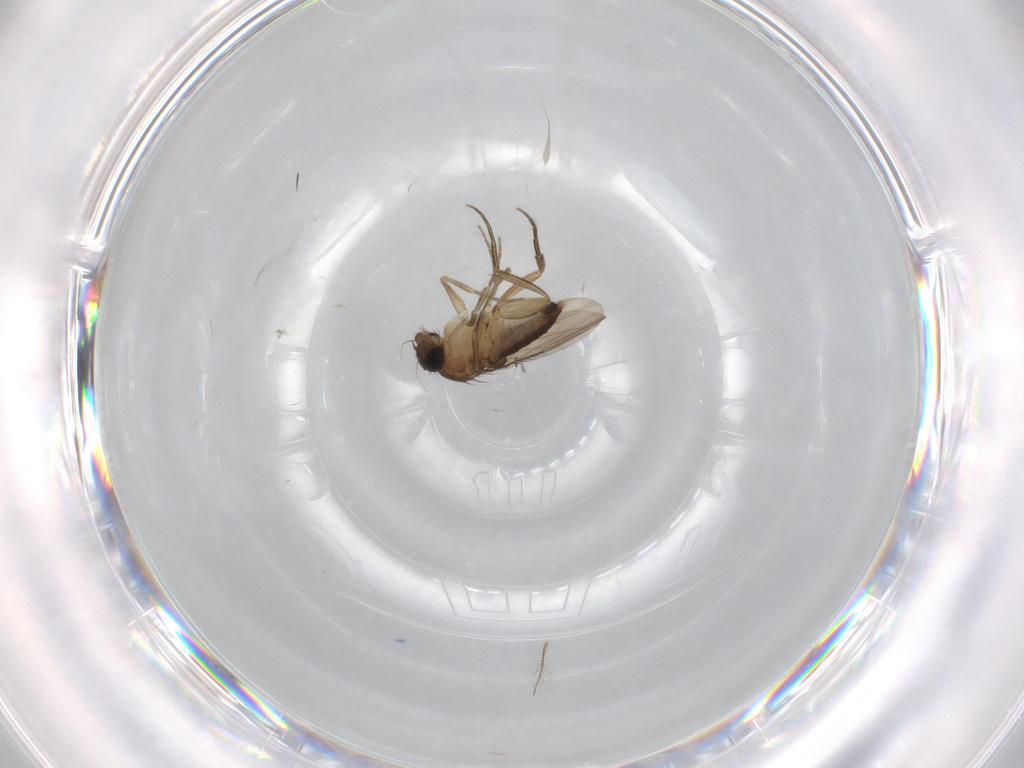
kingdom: Animalia
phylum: Arthropoda
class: Insecta
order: Diptera
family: Phoridae
